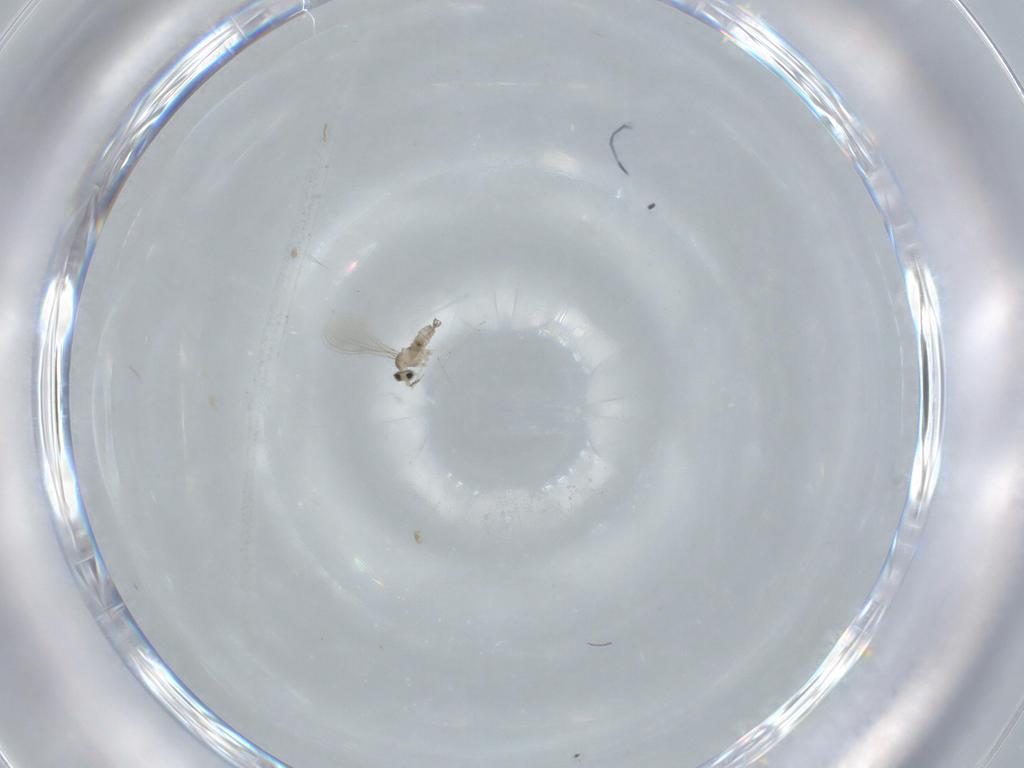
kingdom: Animalia
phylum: Arthropoda
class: Insecta
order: Diptera
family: Cecidomyiidae
